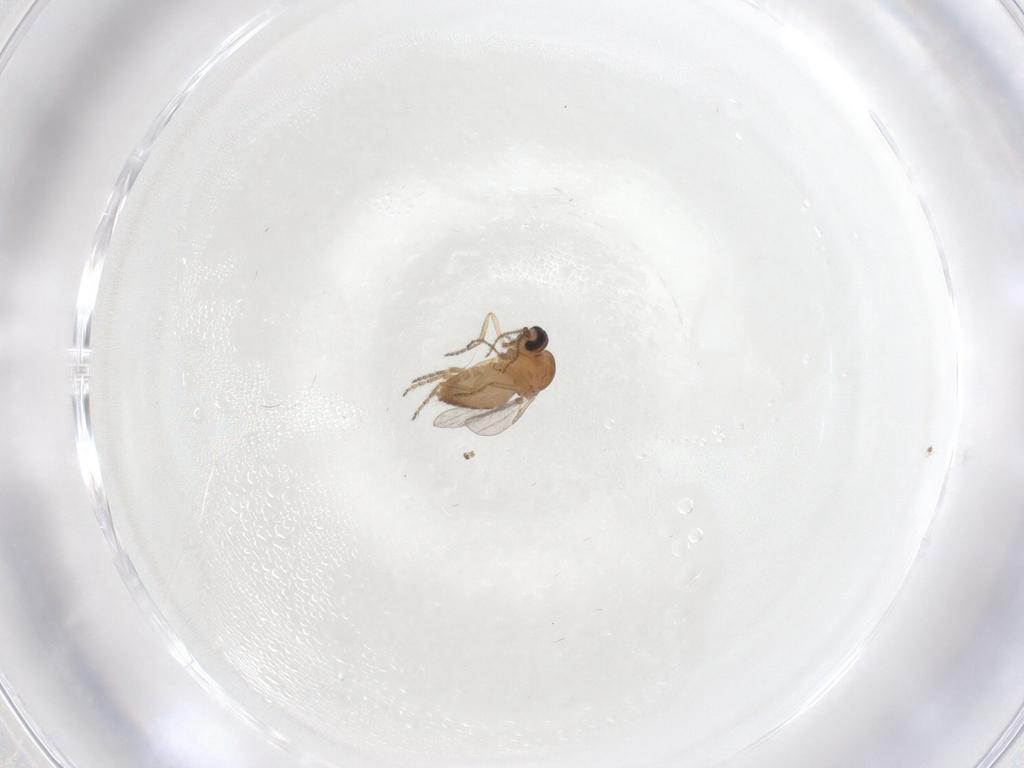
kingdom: Animalia
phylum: Arthropoda
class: Insecta
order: Diptera
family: Ceratopogonidae
